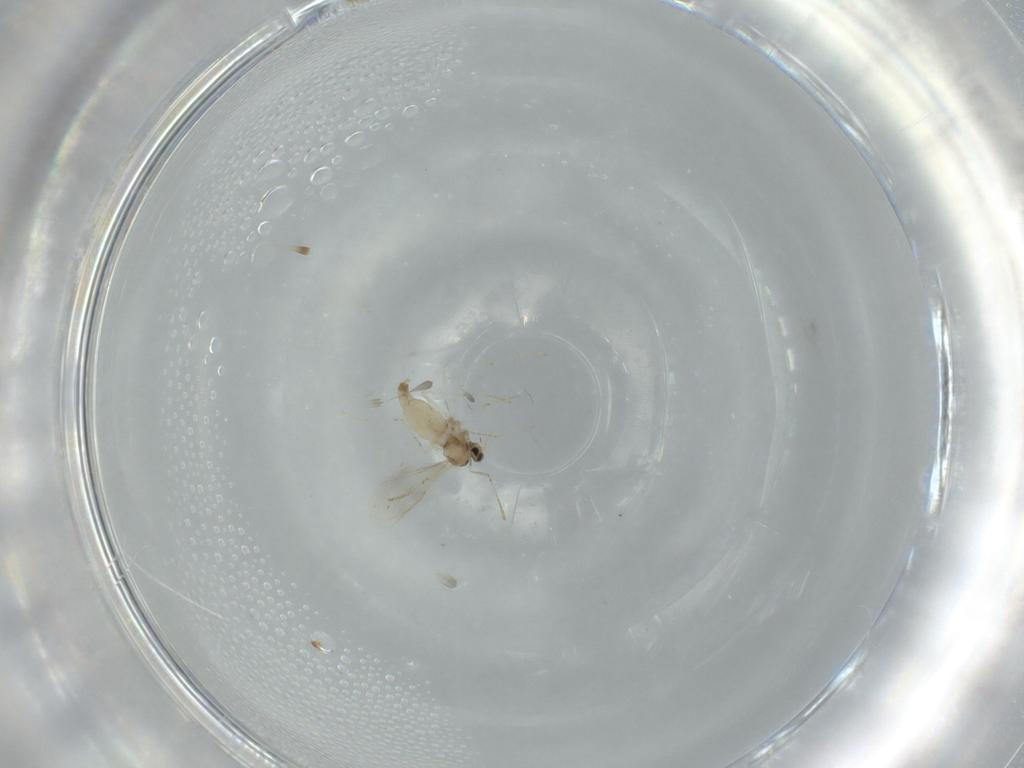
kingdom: Animalia
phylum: Arthropoda
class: Insecta
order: Diptera
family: Cecidomyiidae
